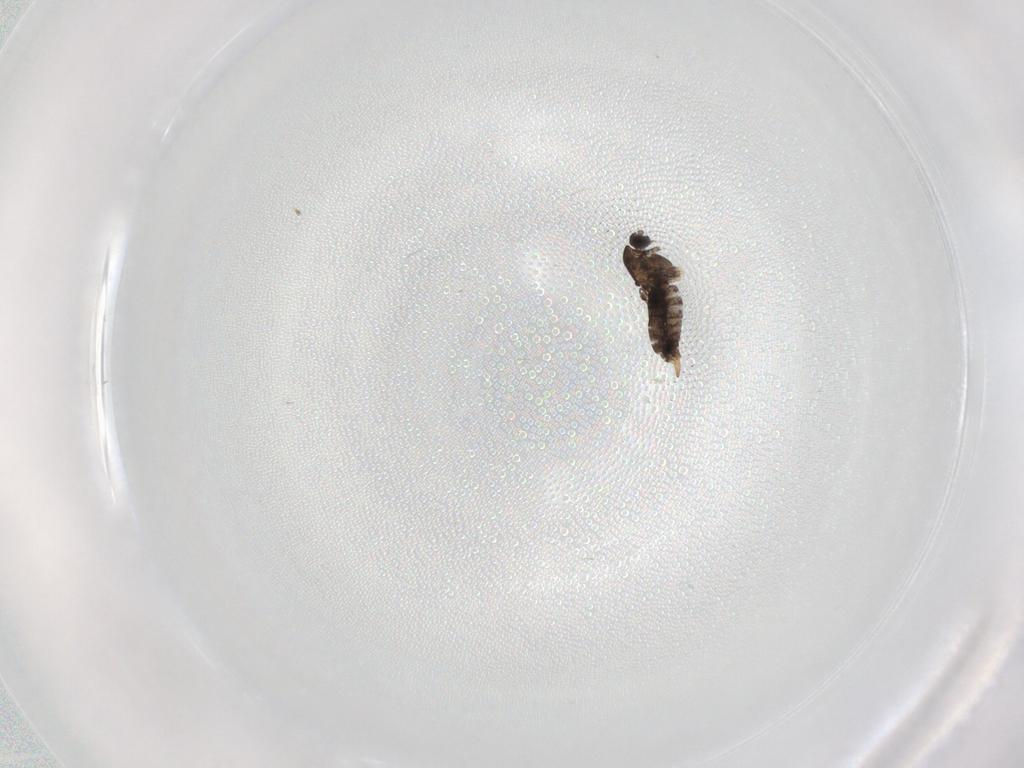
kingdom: Animalia
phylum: Arthropoda
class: Insecta
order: Diptera
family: Chironomidae
